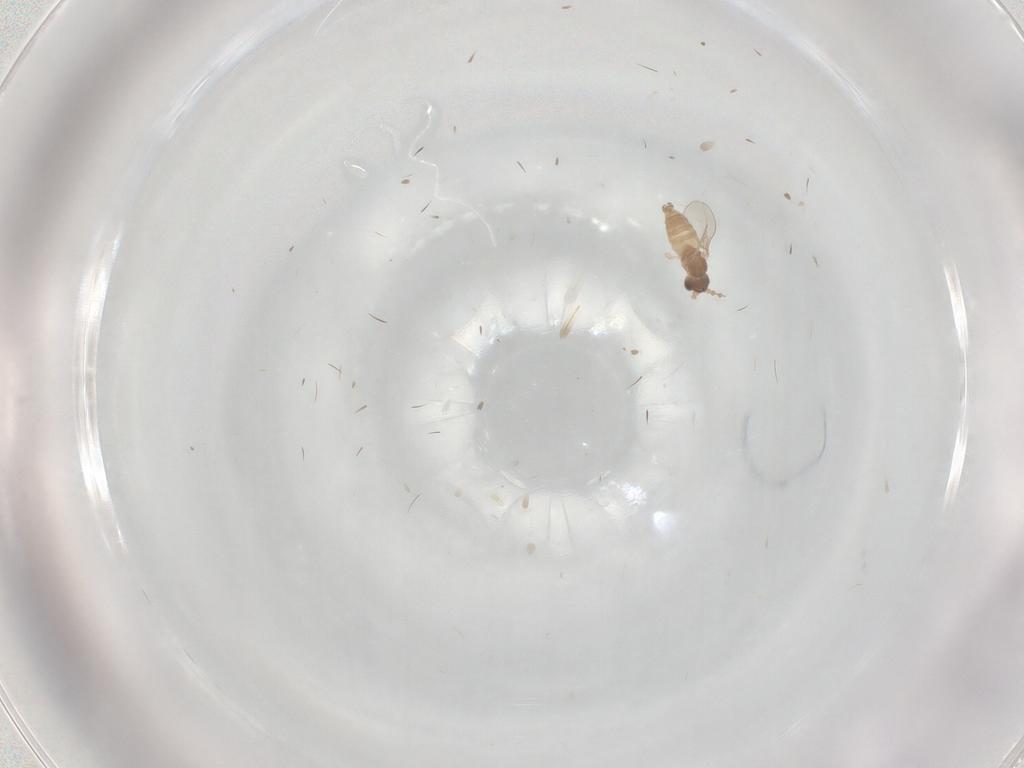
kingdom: Animalia
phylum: Arthropoda
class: Insecta
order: Diptera
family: Cecidomyiidae
